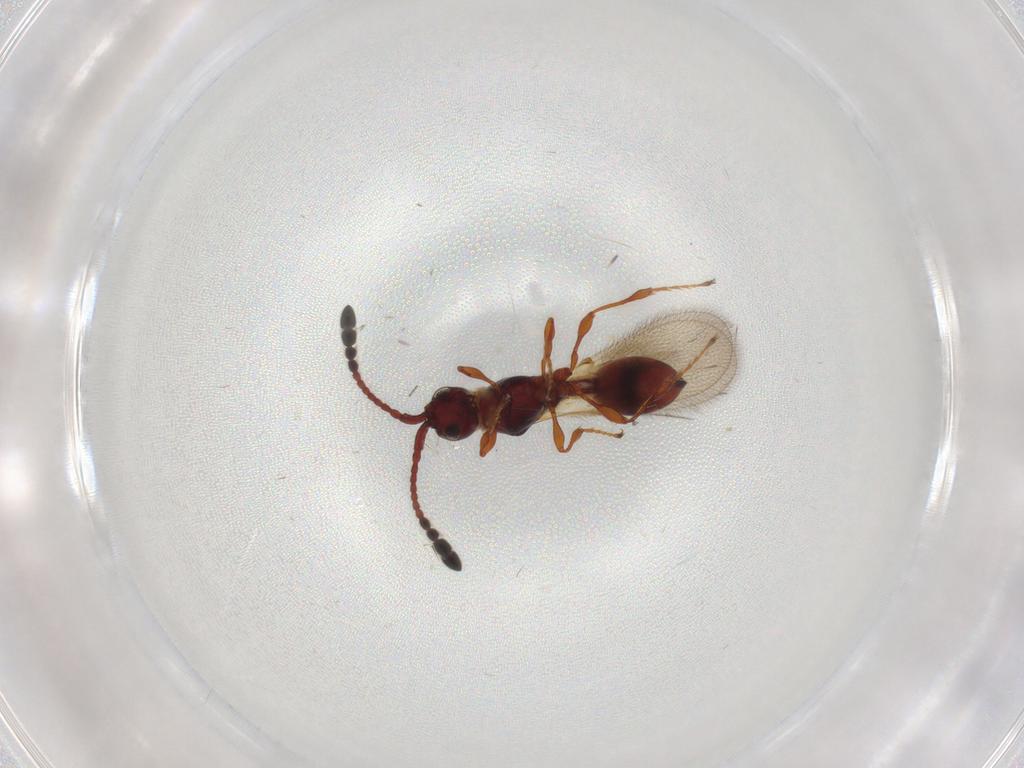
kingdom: Animalia
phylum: Arthropoda
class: Insecta
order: Hymenoptera
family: Diapriidae
